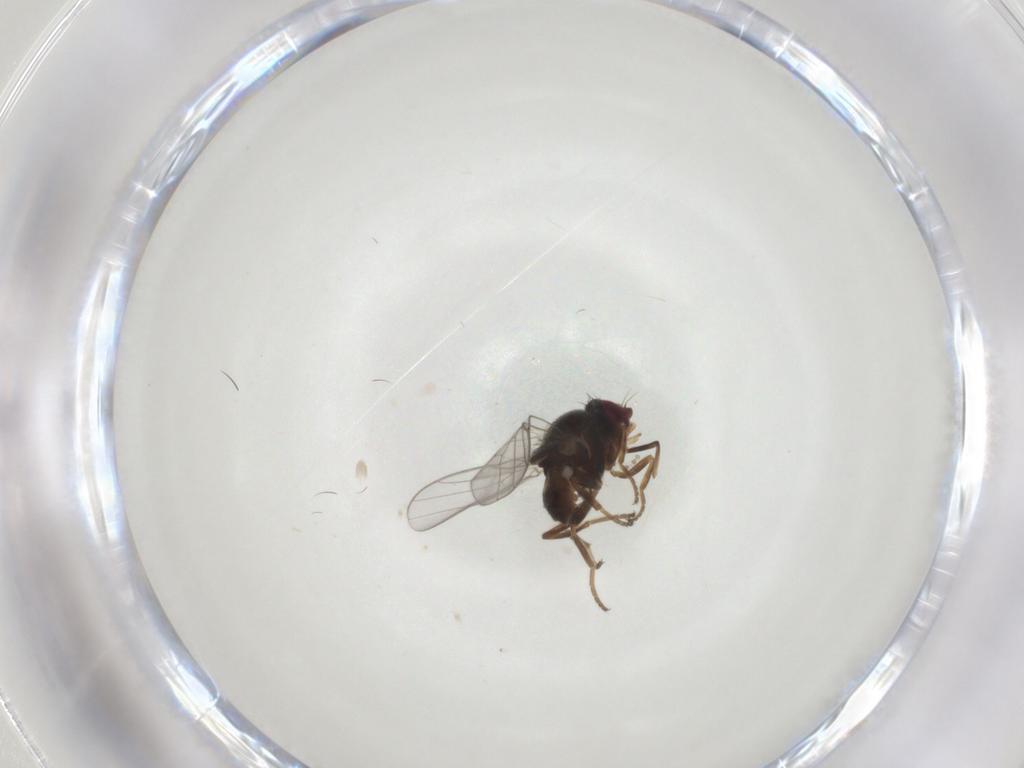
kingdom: Animalia
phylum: Arthropoda
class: Insecta
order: Diptera
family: Chloropidae
